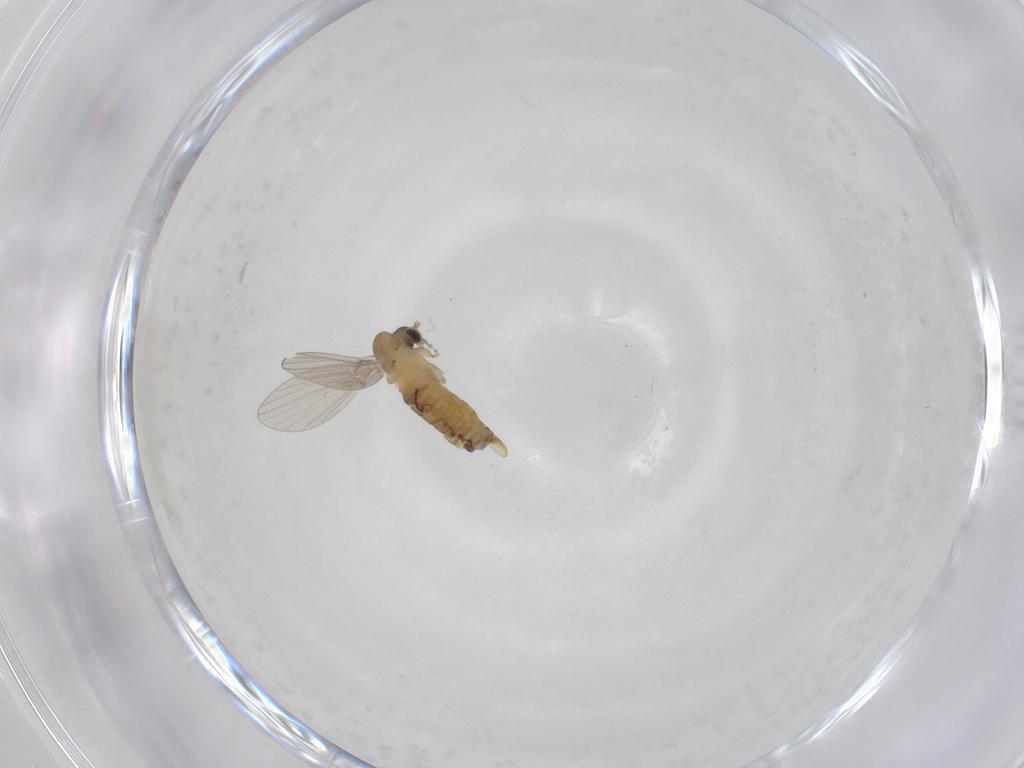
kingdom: Animalia
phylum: Arthropoda
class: Insecta
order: Diptera
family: Psychodidae
